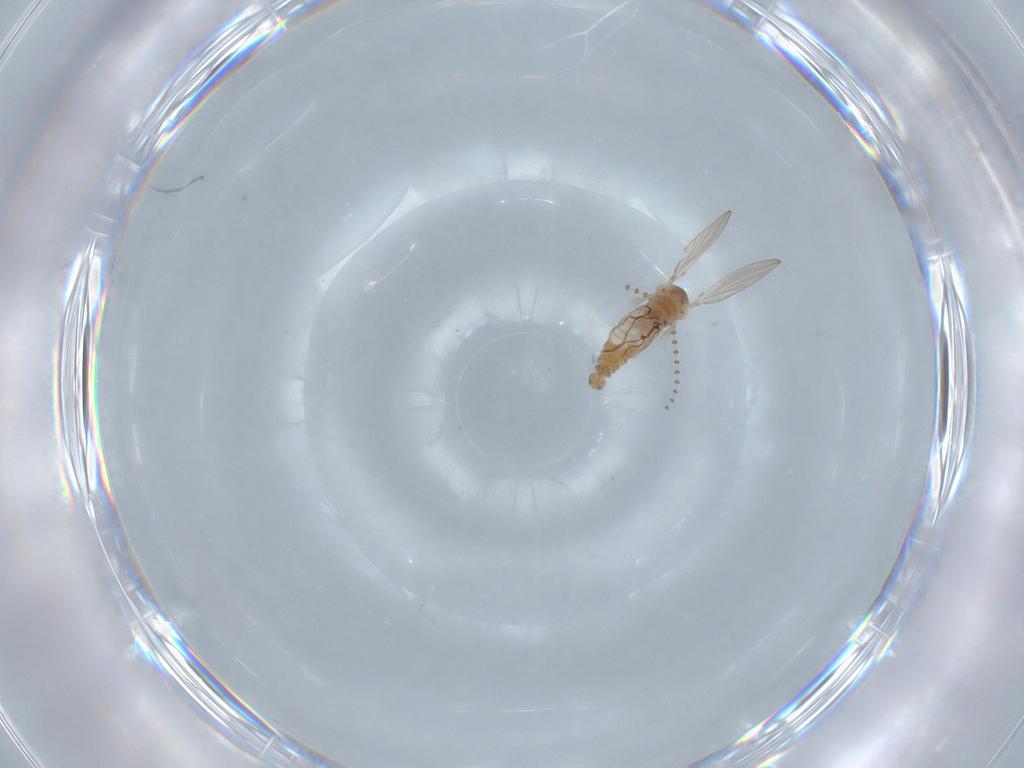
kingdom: Animalia
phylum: Arthropoda
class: Insecta
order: Diptera
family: Psychodidae
